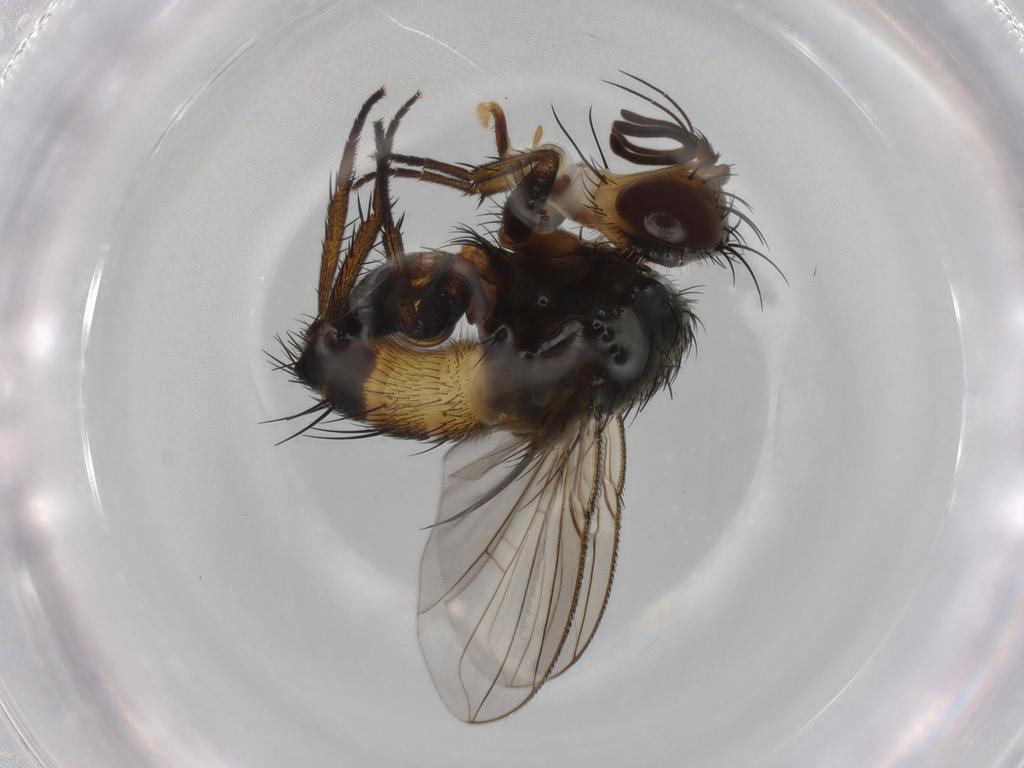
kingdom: Animalia
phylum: Arthropoda
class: Insecta
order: Diptera
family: Tachinidae
